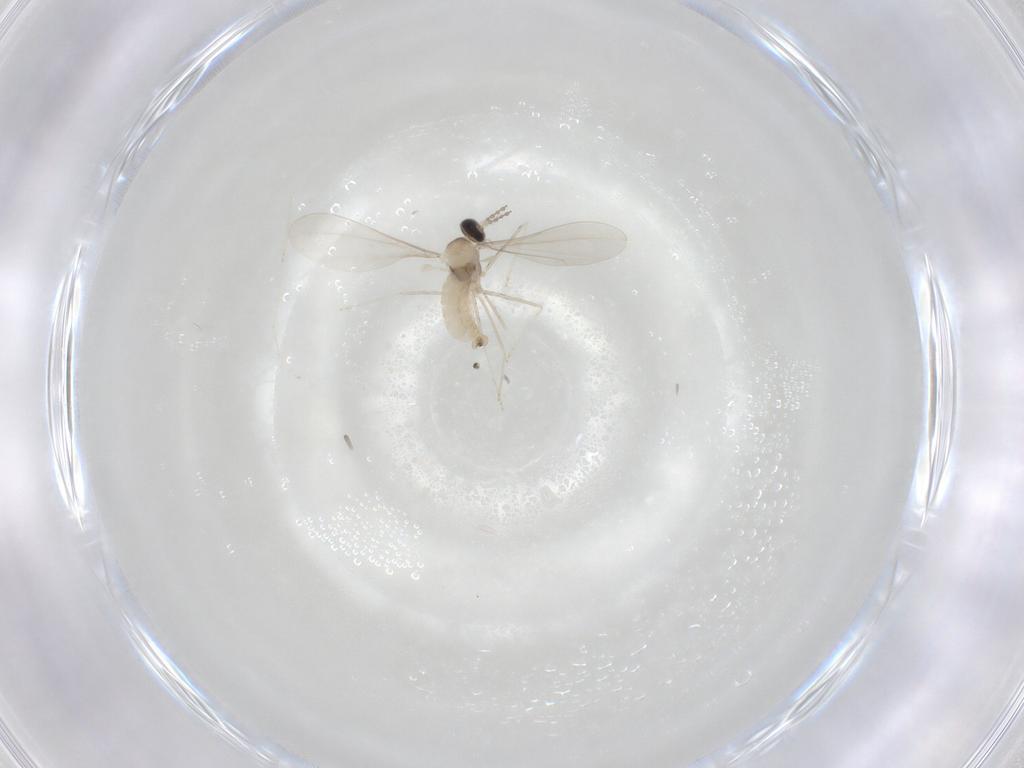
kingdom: Animalia
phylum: Arthropoda
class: Insecta
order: Diptera
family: Cecidomyiidae
